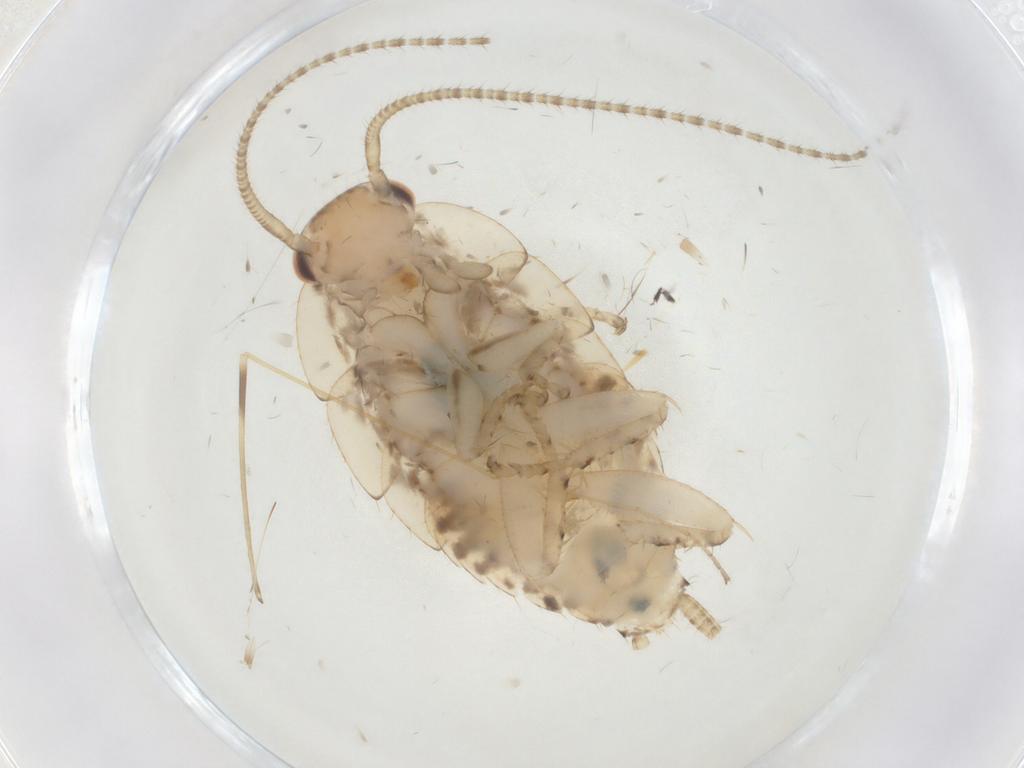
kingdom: Animalia
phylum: Arthropoda
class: Insecta
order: Blattodea
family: Ectobiidae
